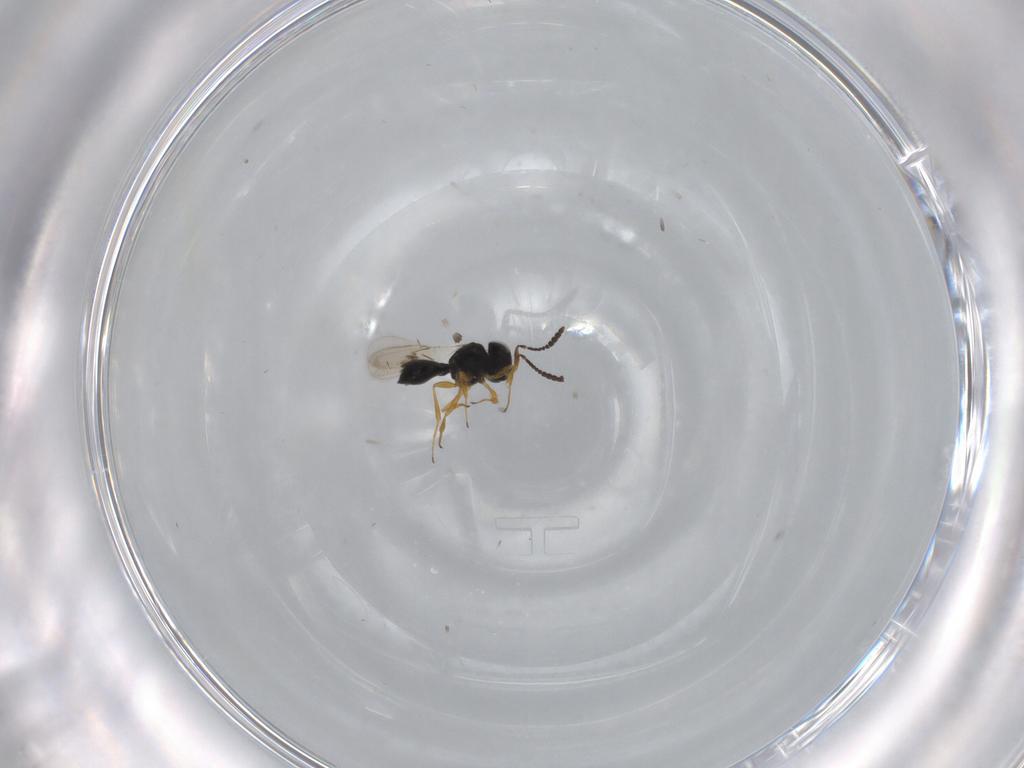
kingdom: Animalia
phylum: Arthropoda
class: Insecta
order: Hymenoptera
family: Scelionidae
